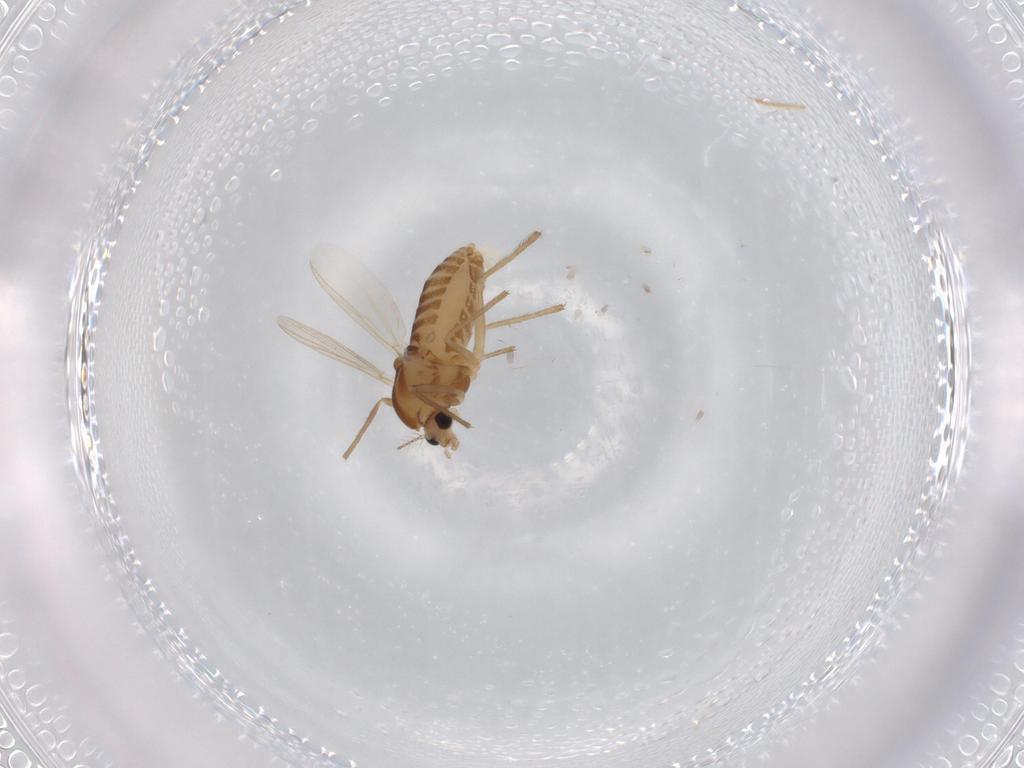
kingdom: Animalia
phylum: Arthropoda
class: Insecta
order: Diptera
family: Chironomidae
